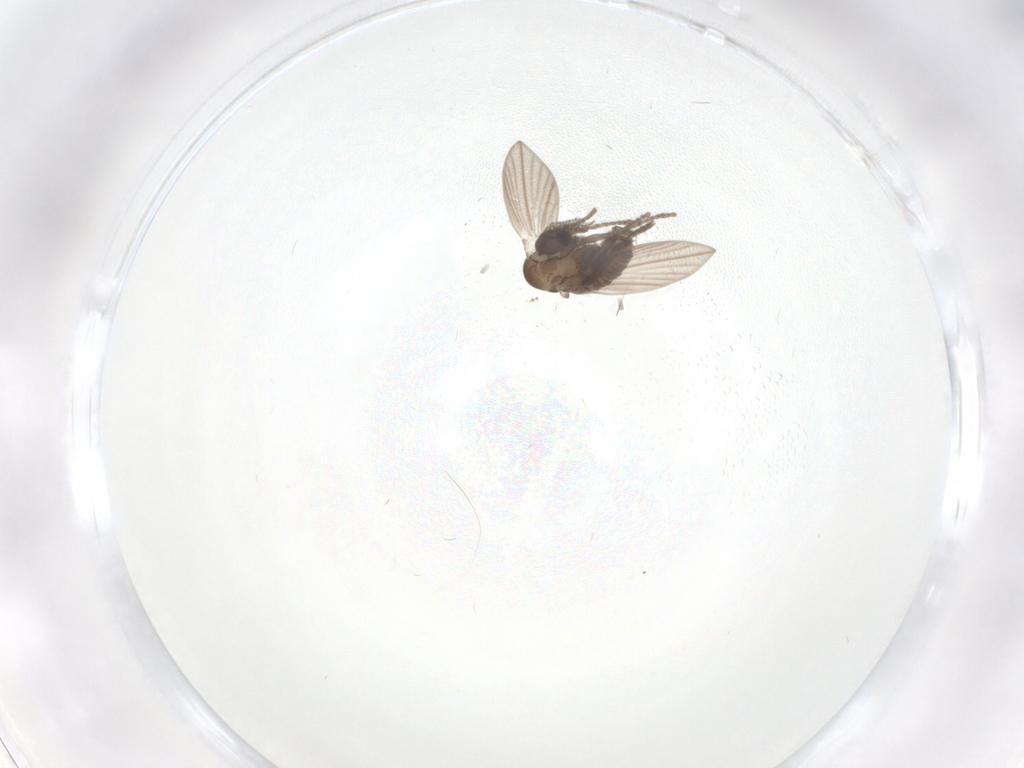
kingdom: Animalia
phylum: Arthropoda
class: Insecta
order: Diptera
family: Psychodidae
